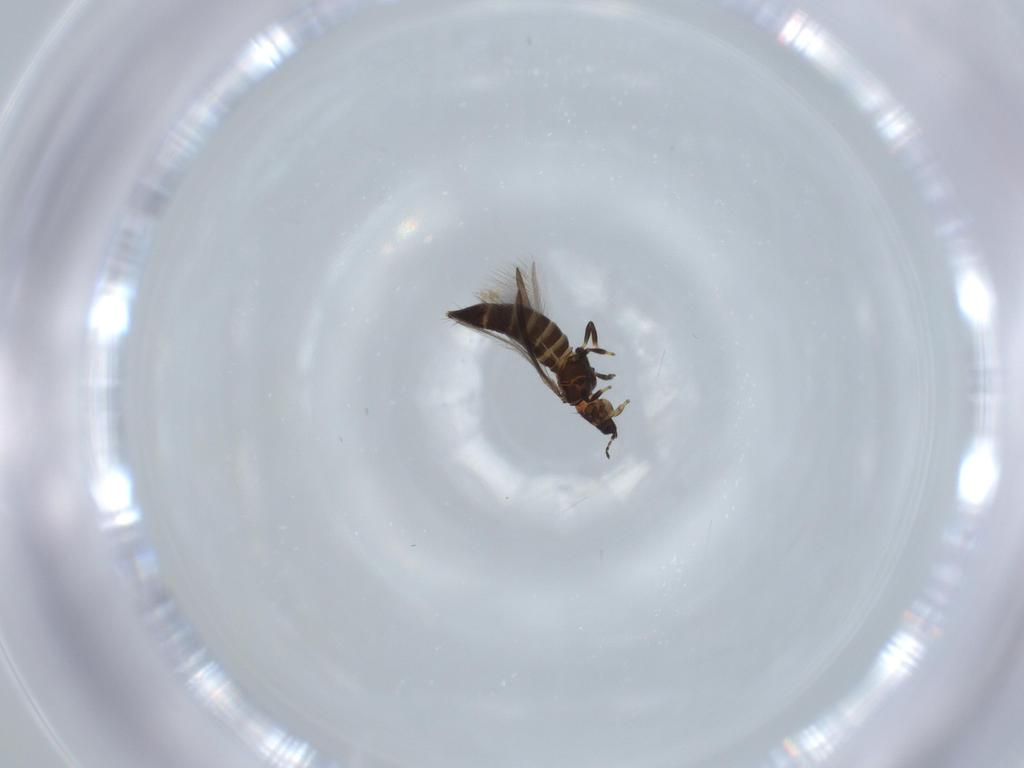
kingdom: Animalia
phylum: Arthropoda
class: Insecta
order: Thysanoptera
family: Thripidae
